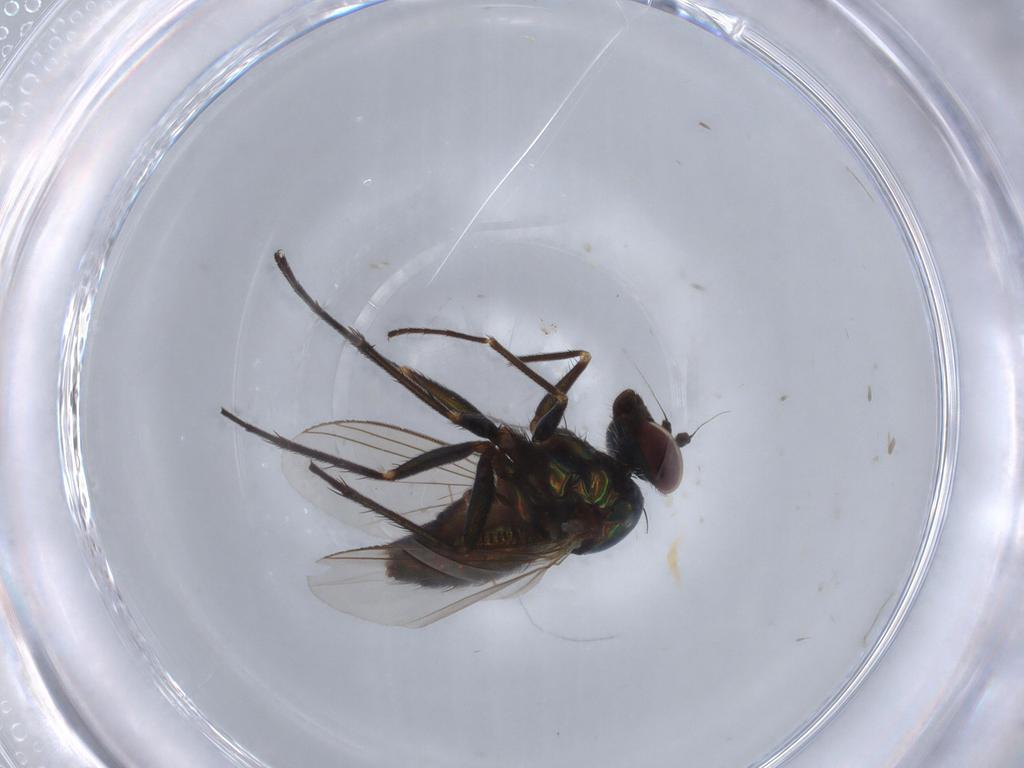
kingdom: Animalia
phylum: Arthropoda
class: Insecta
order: Diptera
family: Dolichopodidae
